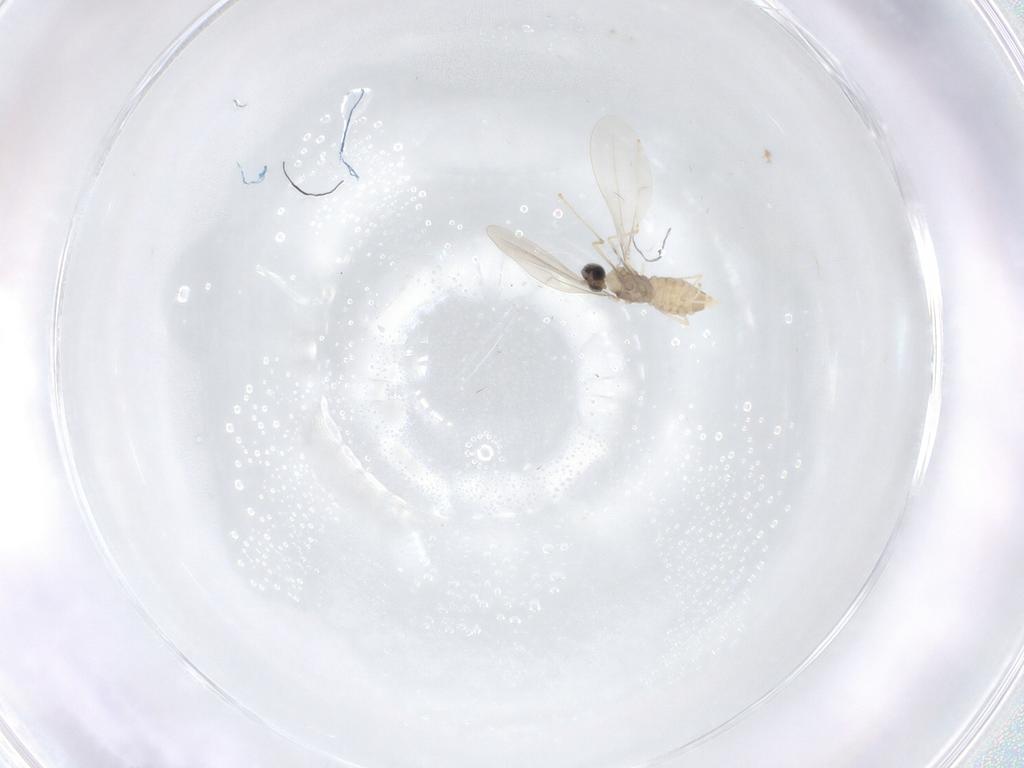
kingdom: Animalia
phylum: Arthropoda
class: Insecta
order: Diptera
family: Cecidomyiidae
